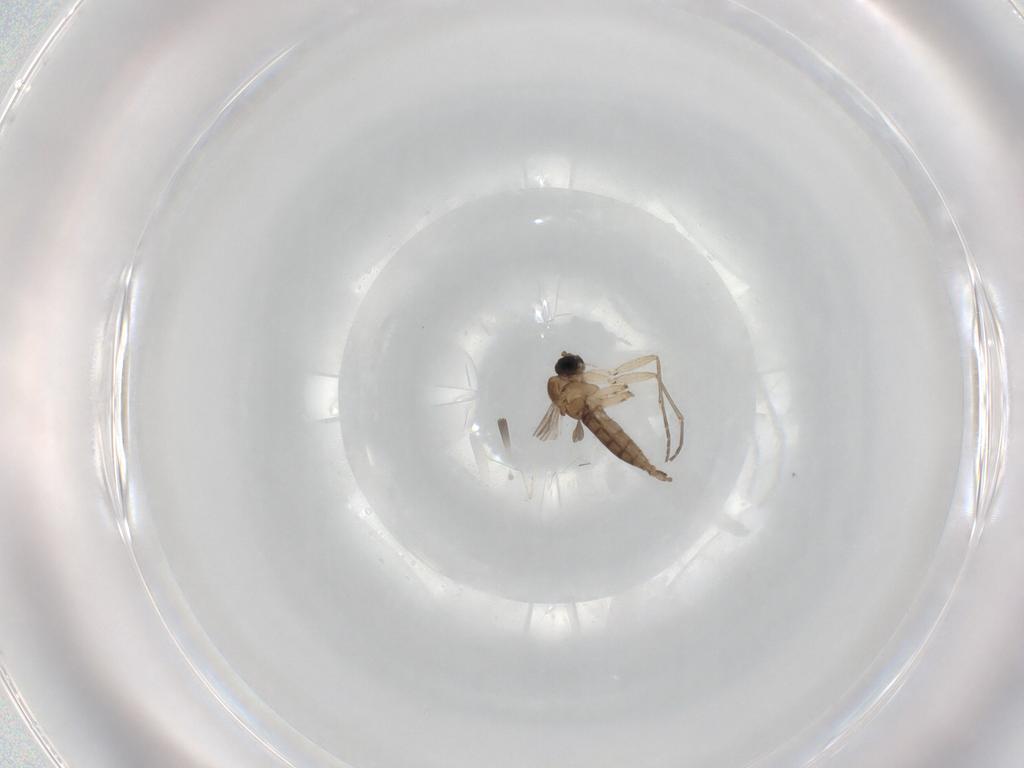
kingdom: Animalia
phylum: Arthropoda
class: Insecta
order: Diptera
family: Sciaridae
